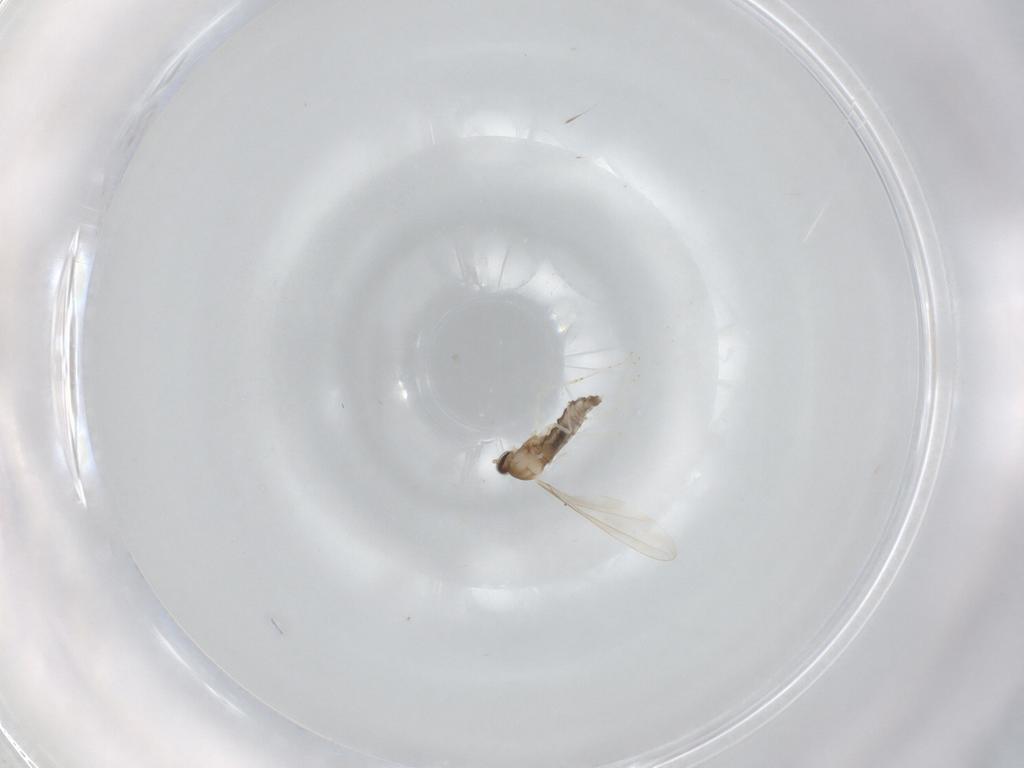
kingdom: Animalia
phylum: Arthropoda
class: Insecta
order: Diptera
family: Cecidomyiidae
